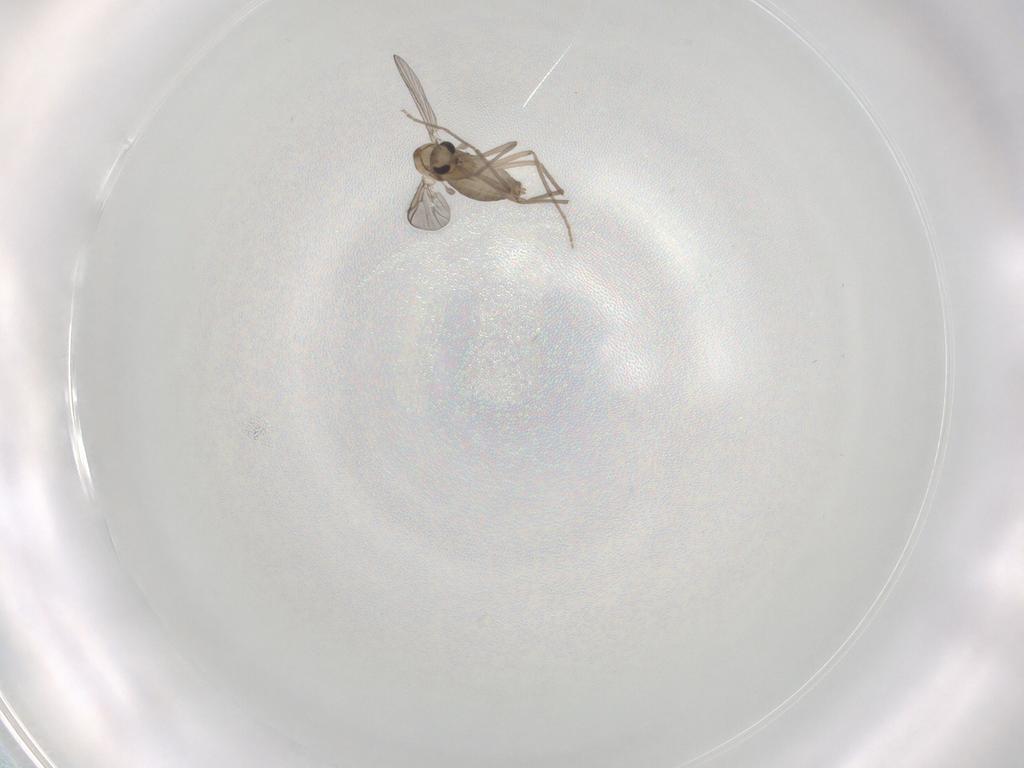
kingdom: Animalia
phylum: Arthropoda
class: Insecta
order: Diptera
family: Chironomidae
